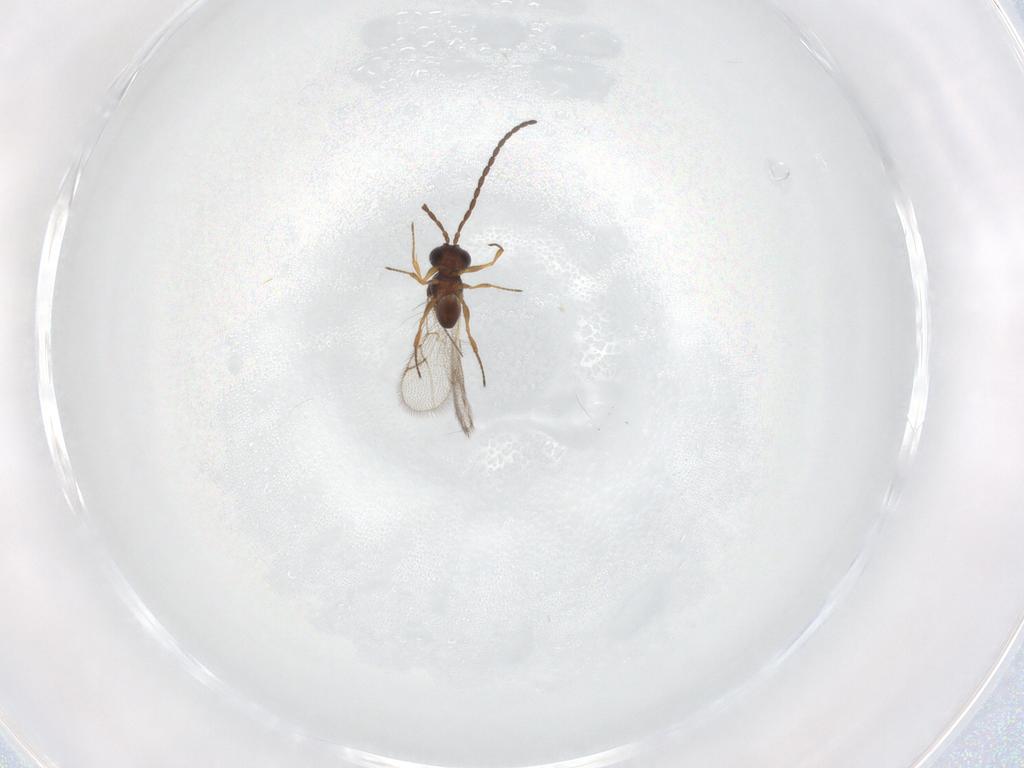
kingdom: Animalia
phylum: Arthropoda
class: Insecta
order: Hymenoptera
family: Figitidae
